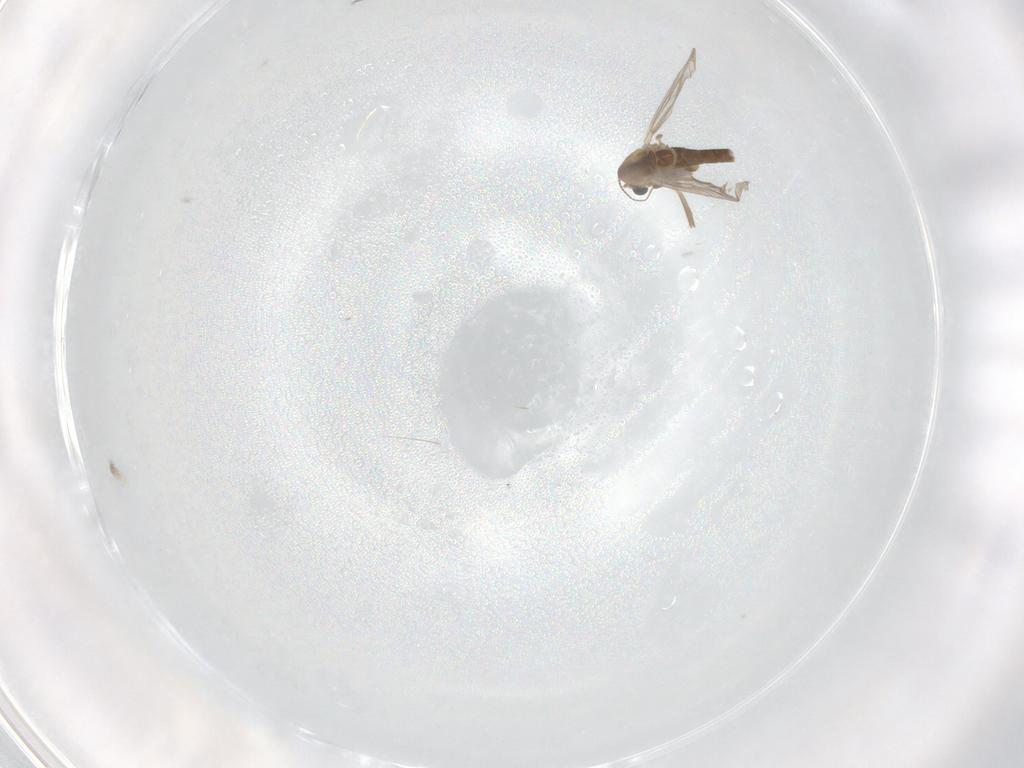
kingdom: Animalia
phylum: Arthropoda
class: Insecta
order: Diptera
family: Chironomidae
